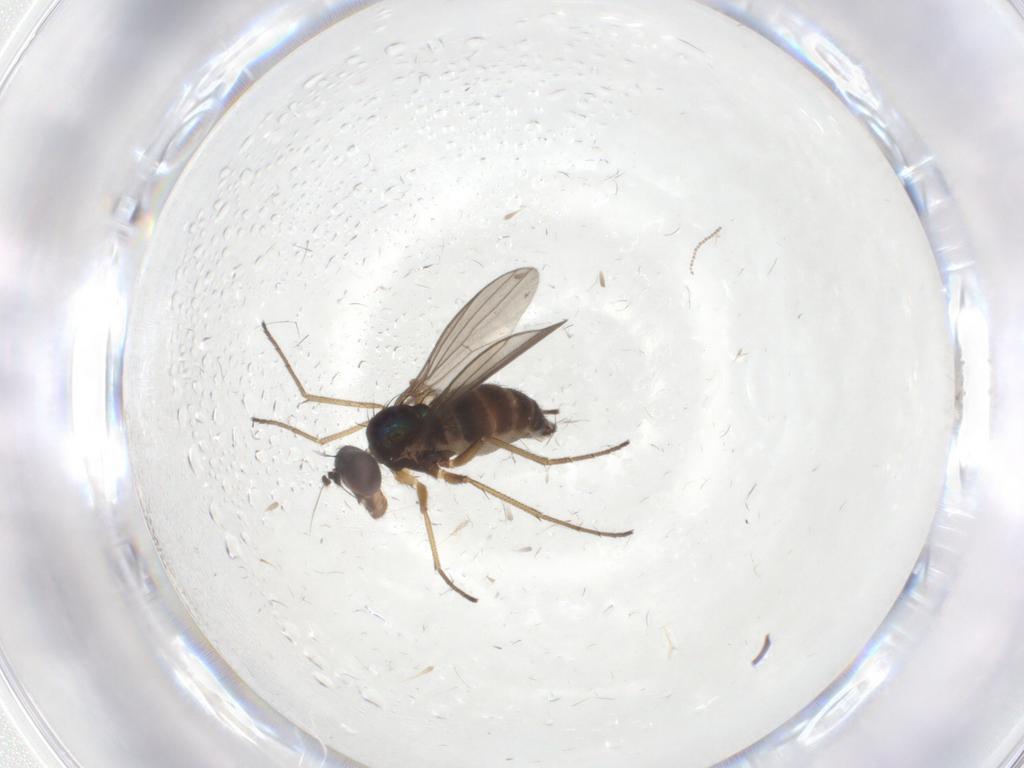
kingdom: Animalia
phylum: Arthropoda
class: Insecta
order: Diptera
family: Dolichopodidae
